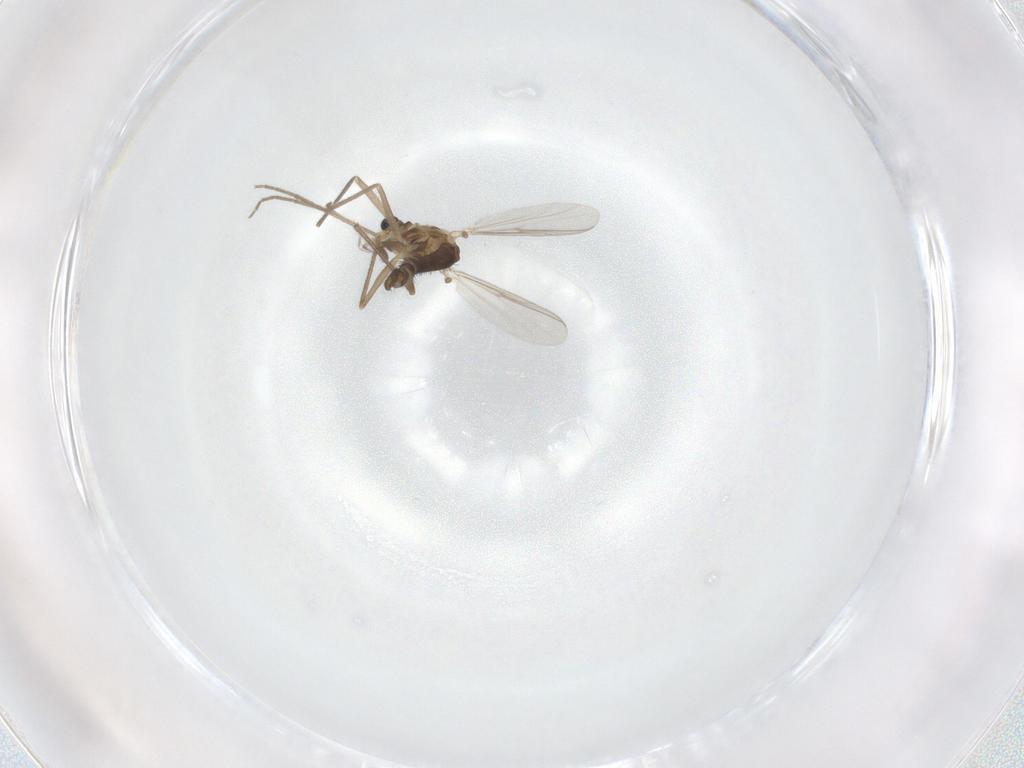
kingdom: Animalia
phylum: Arthropoda
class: Insecta
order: Diptera
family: Chironomidae
